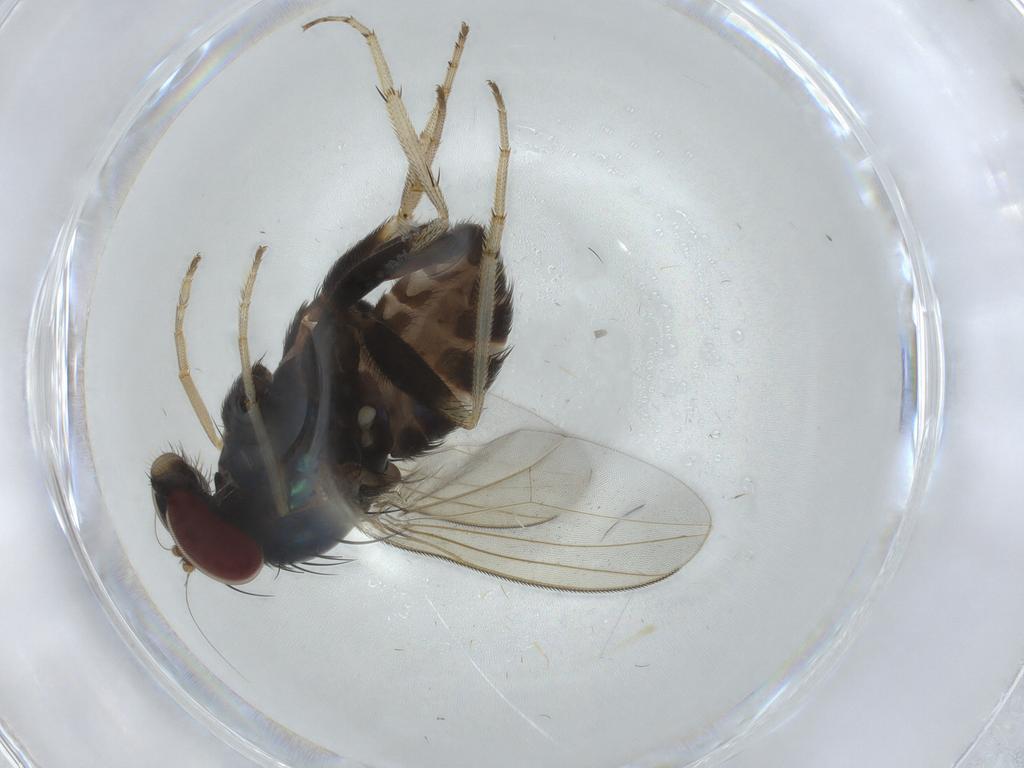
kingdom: Animalia
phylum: Arthropoda
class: Insecta
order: Diptera
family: Dolichopodidae
